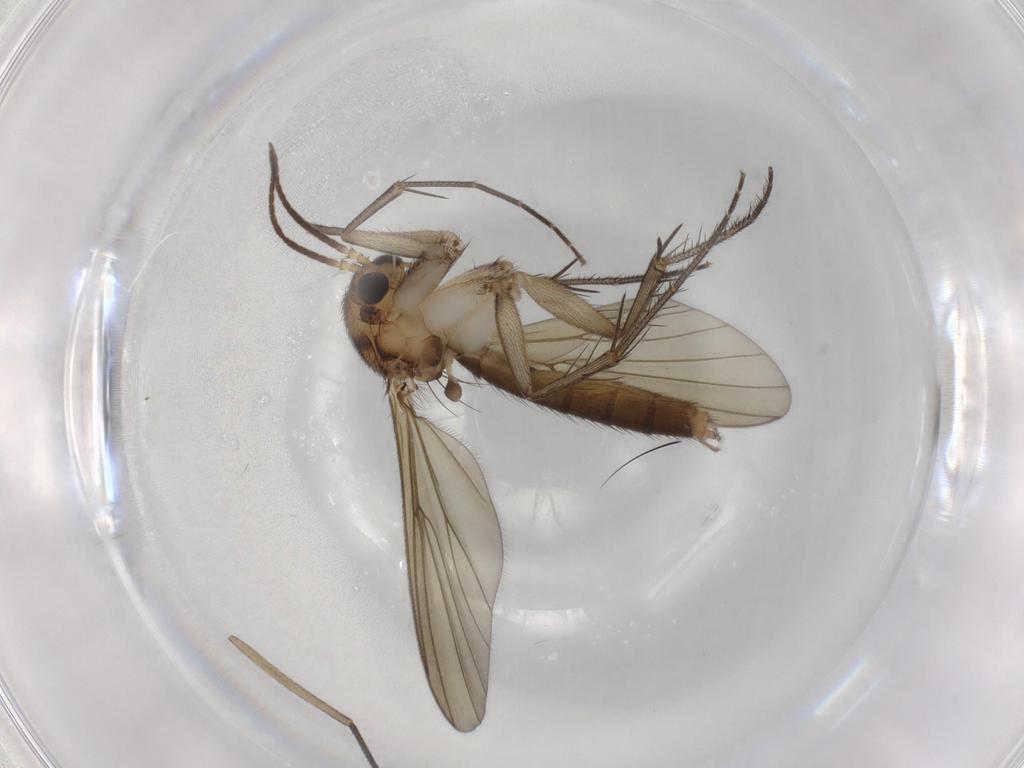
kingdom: Animalia
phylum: Arthropoda
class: Insecta
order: Diptera
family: Mycetophilidae
